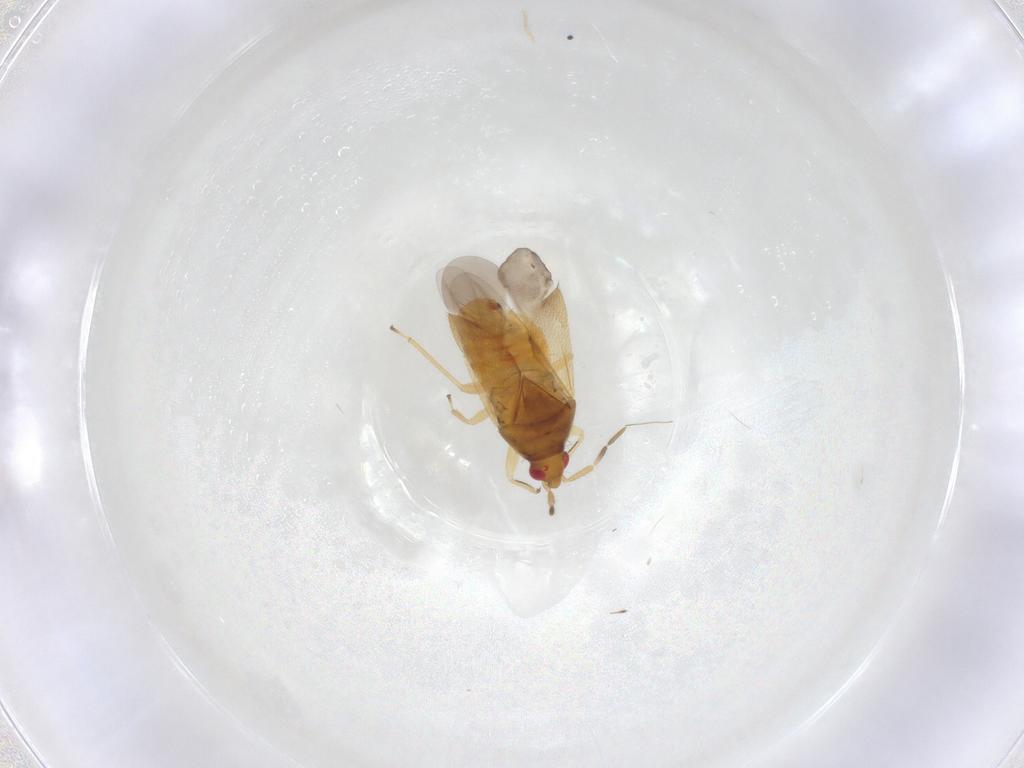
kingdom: Animalia
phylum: Arthropoda
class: Insecta
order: Hemiptera
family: Anthocoridae
